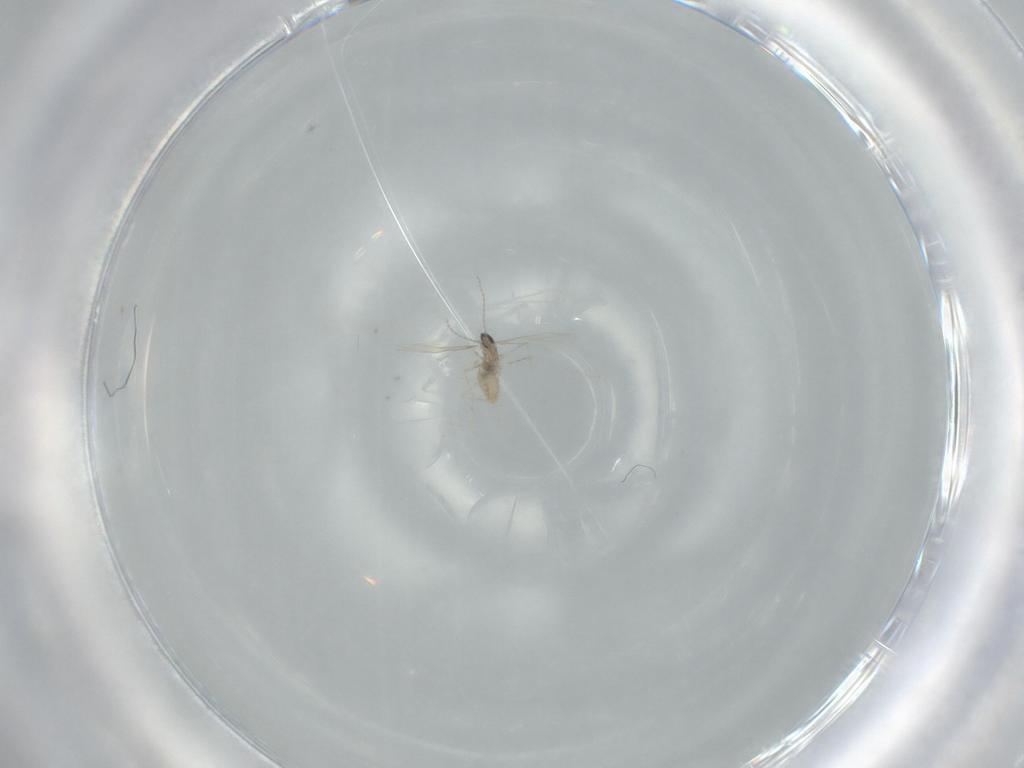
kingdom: Animalia
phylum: Arthropoda
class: Insecta
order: Diptera
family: Cecidomyiidae
